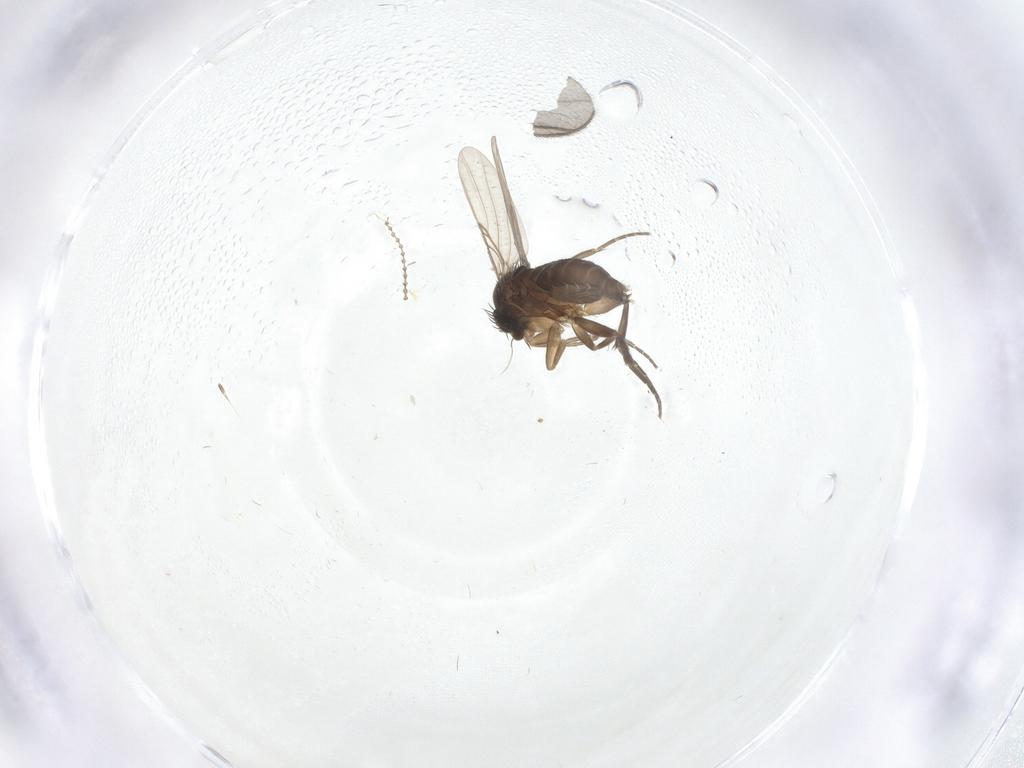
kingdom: Animalia
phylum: Arthropoda
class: Insecta
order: Diptera
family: Phoridae
